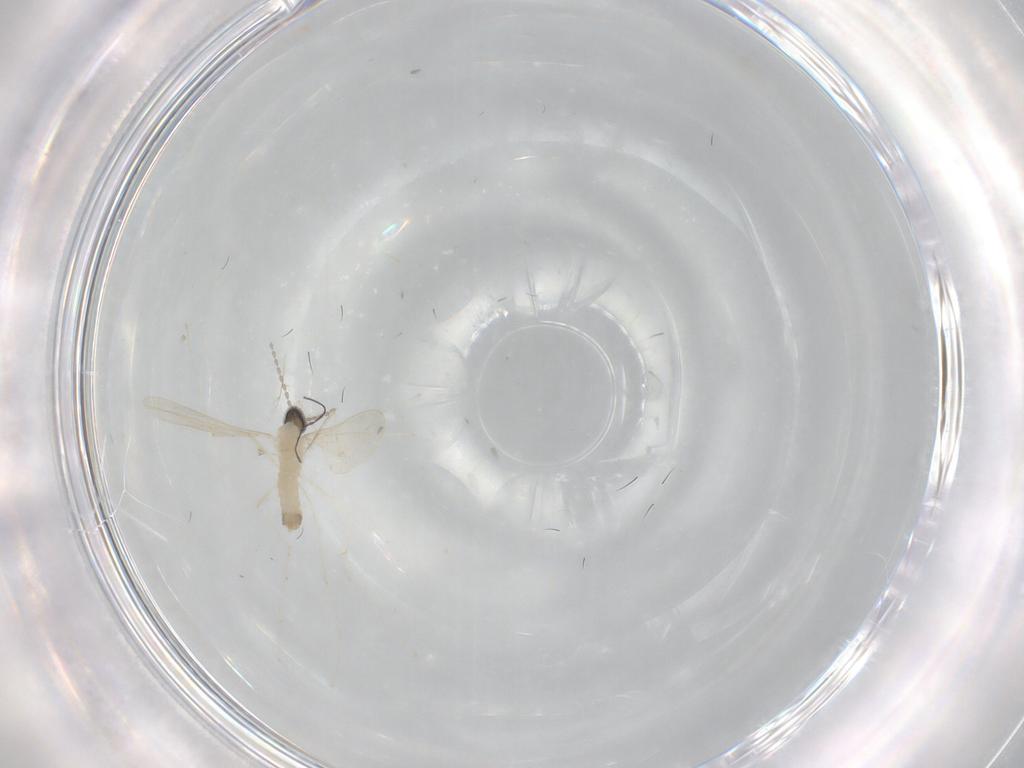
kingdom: Animalia
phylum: Arthropoda
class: Insecta
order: Diptera
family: Cecidomyiidae
